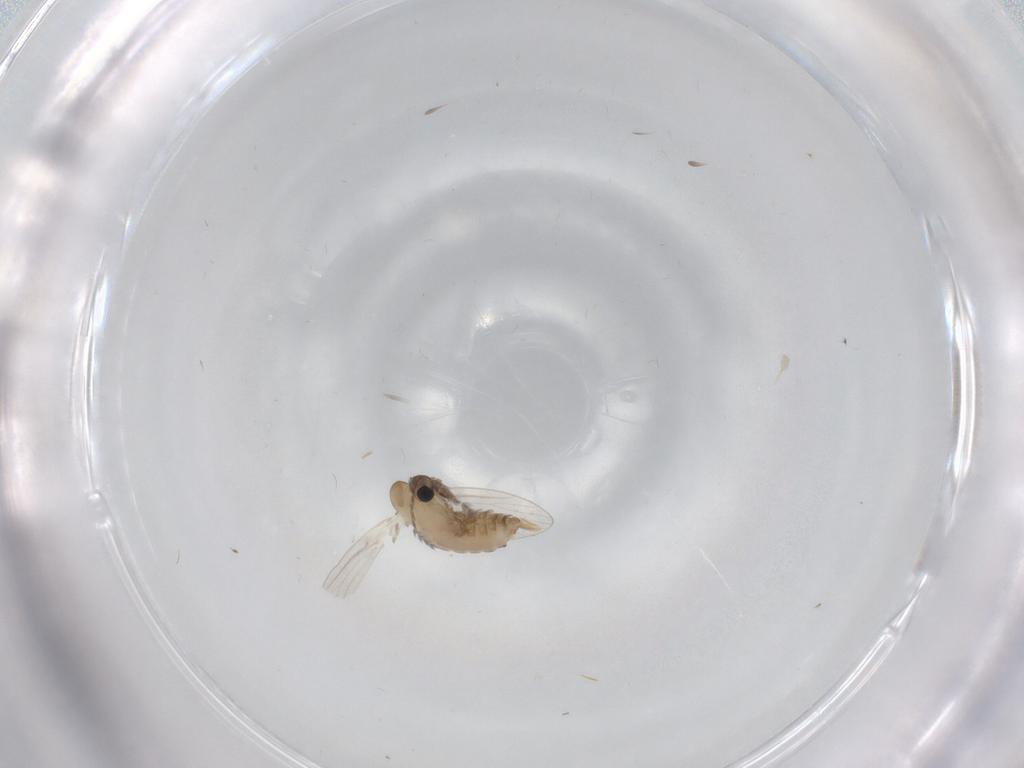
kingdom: Animalia
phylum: Arthropoda
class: Insecta
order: Diptera
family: Psychodidae
